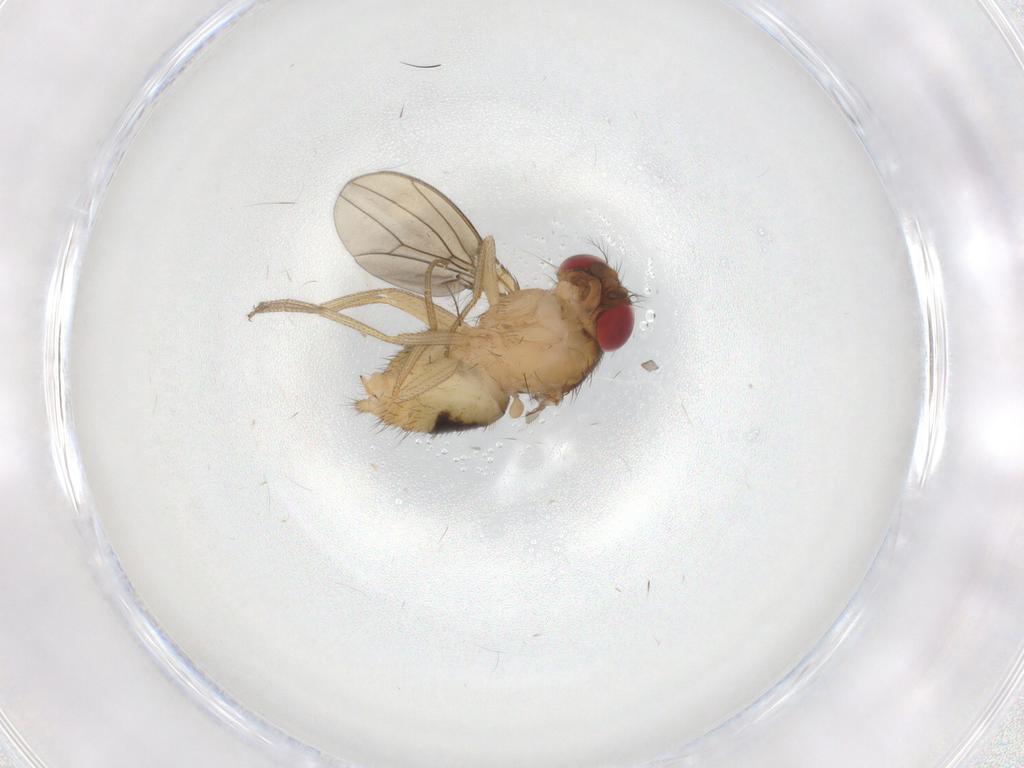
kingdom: Animalia
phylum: Arthropoda
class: Insecta
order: Diptera
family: Drosophilidae
